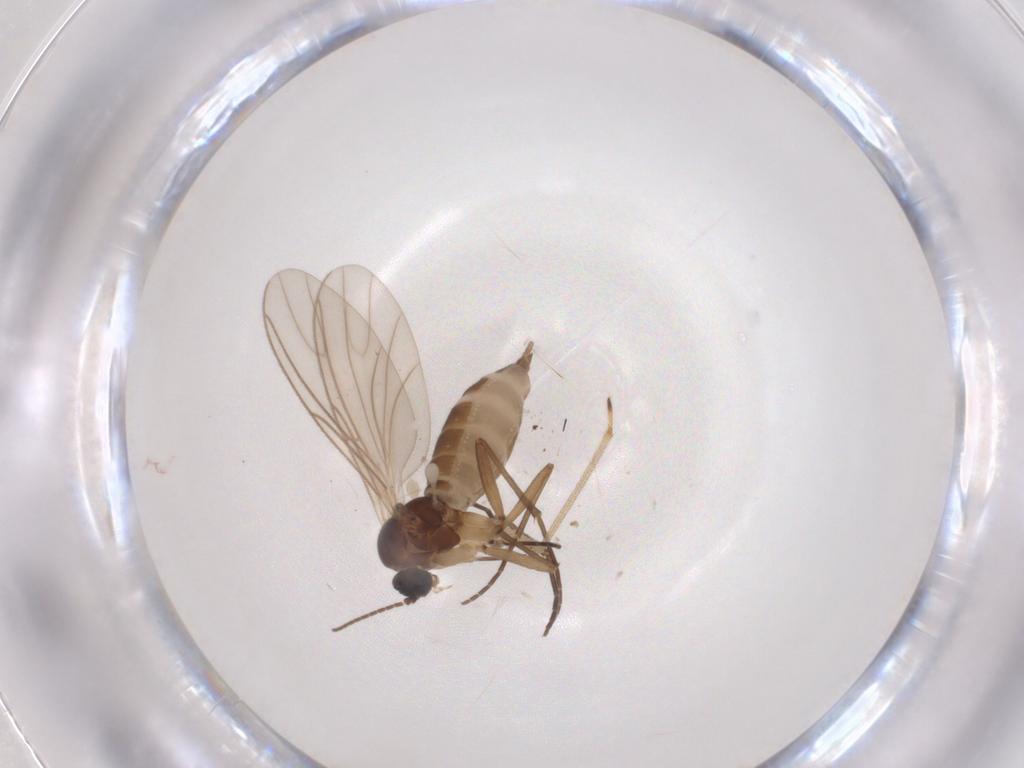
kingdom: Animalia
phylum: Arthropoda
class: Insecta
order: Diptera
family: Sciaridae
